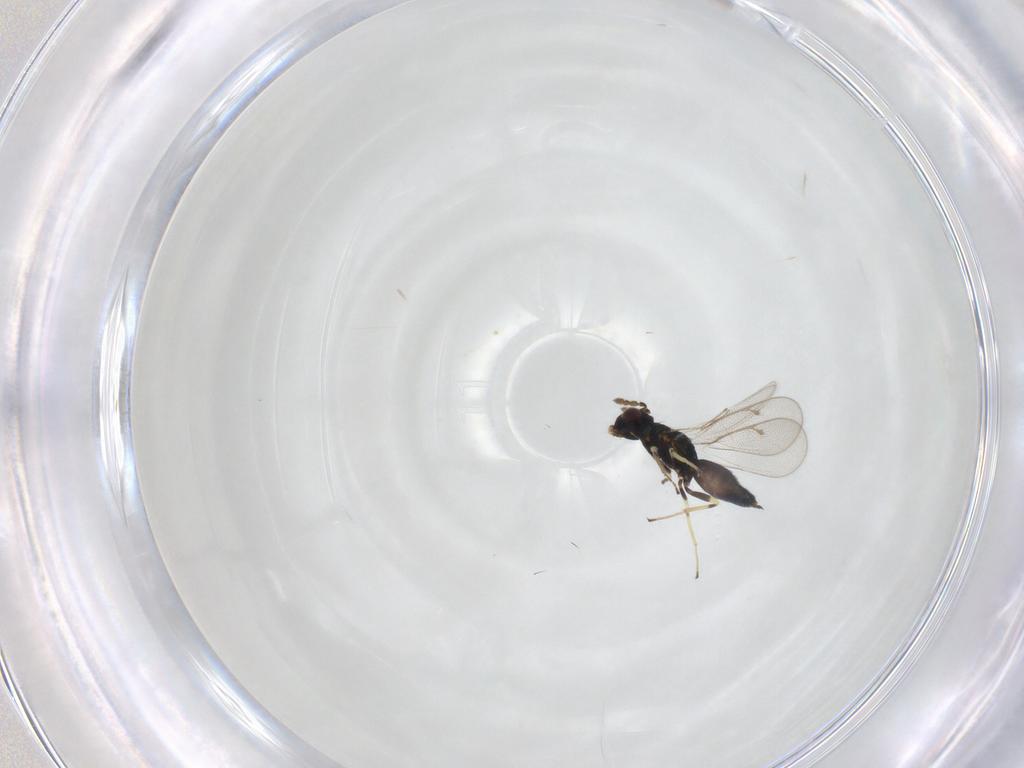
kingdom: Animalia
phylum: Arthropoda
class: Insecta
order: Hymenoptera
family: Eulophidae
